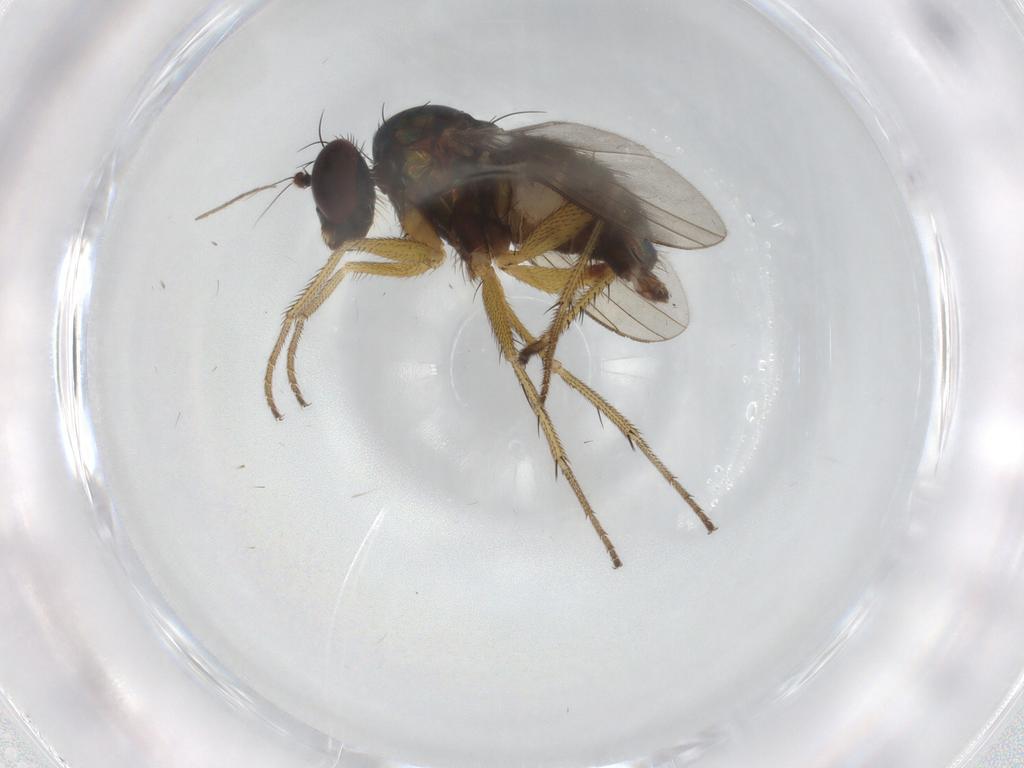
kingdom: Animalia
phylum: Arthropoda
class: Insecta
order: Diptera
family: Dolichopodidae
